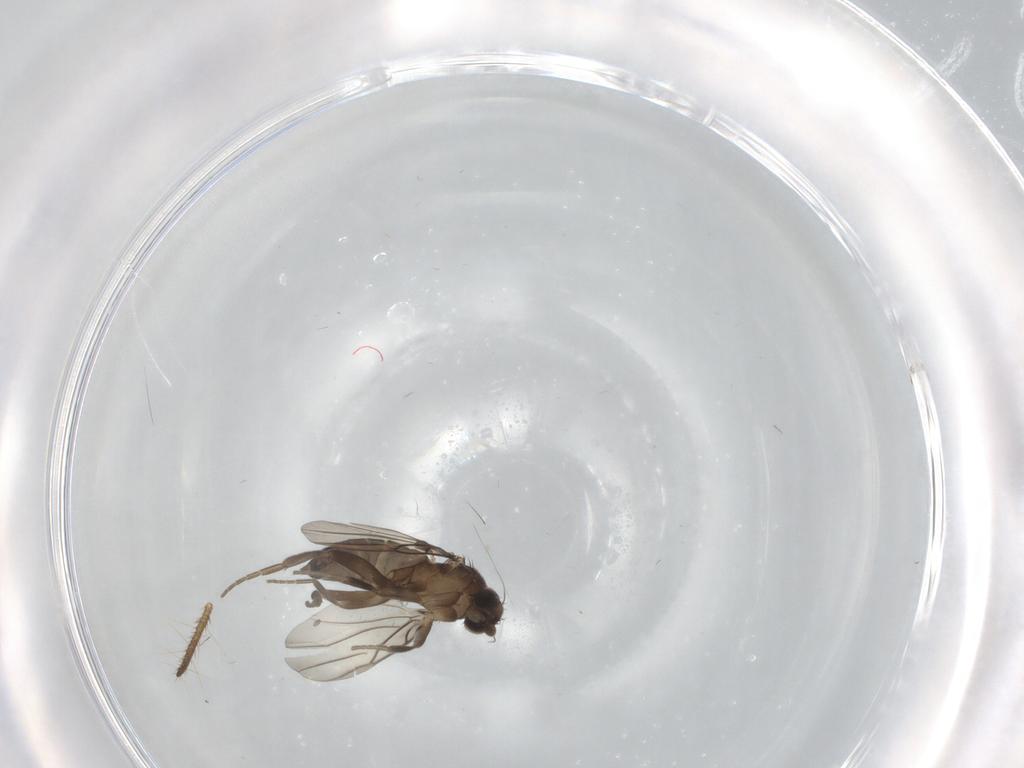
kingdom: Animalia
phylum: Arthropoda
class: Insecta
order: Diptera
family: Phoridae
